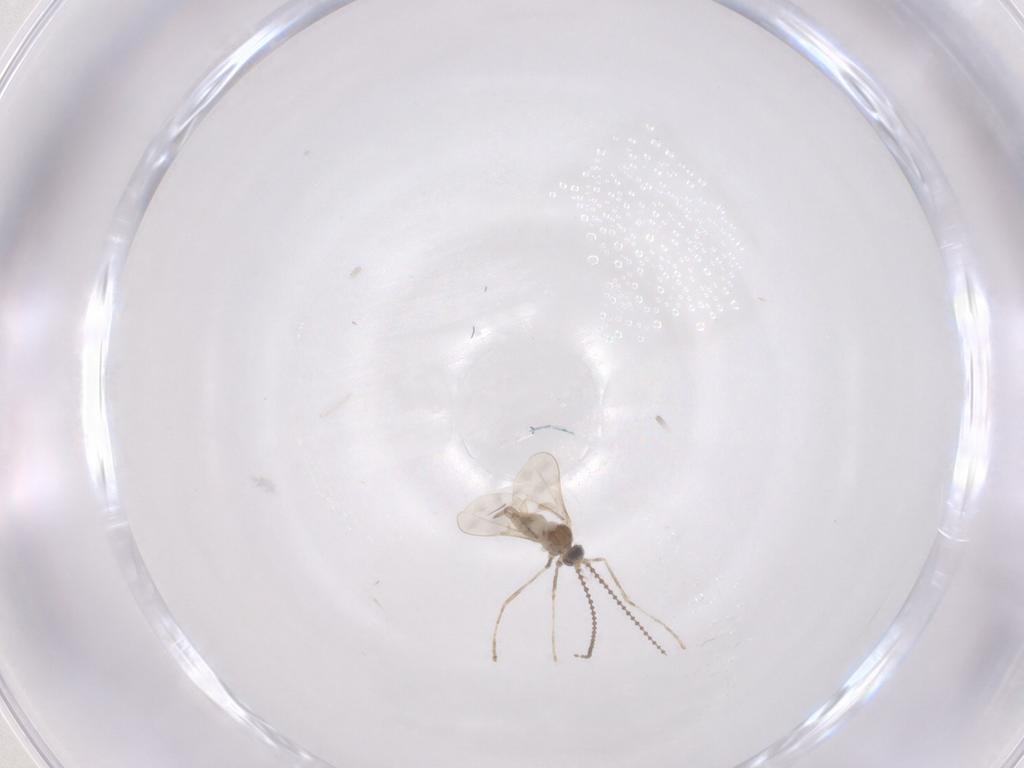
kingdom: Animalia
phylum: Arthropoda
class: Insecta
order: Diptera
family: Cecidomyiidae
